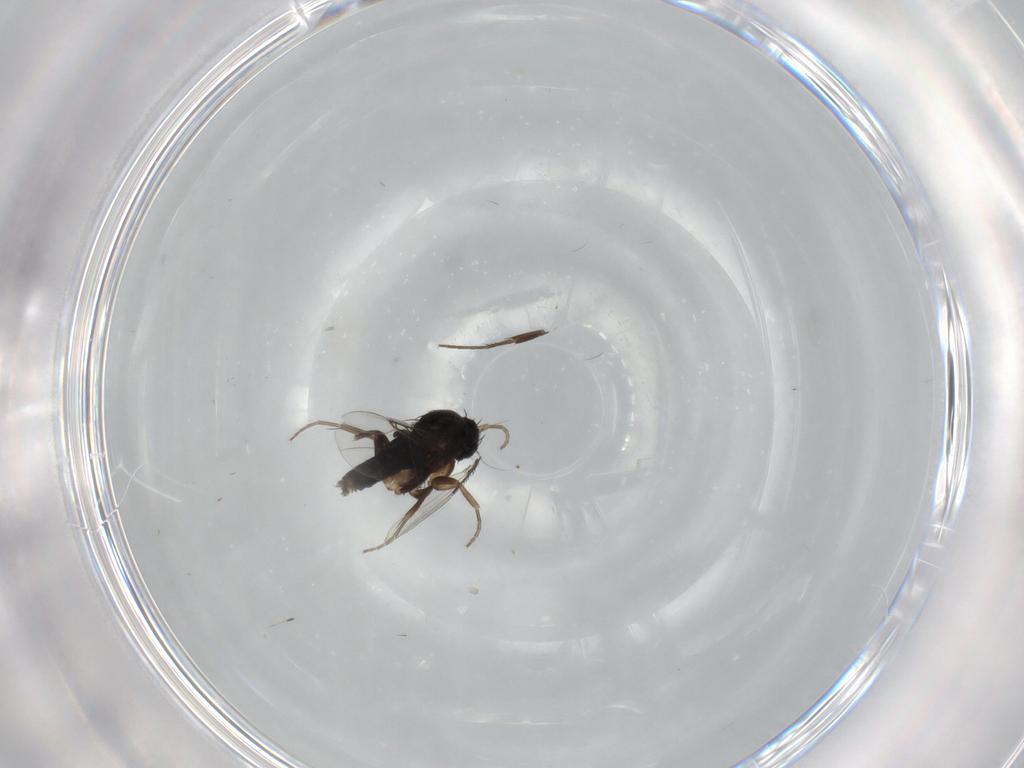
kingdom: Animalia
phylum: Arthropoda
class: Insecta
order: Diptera
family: Phoridae
